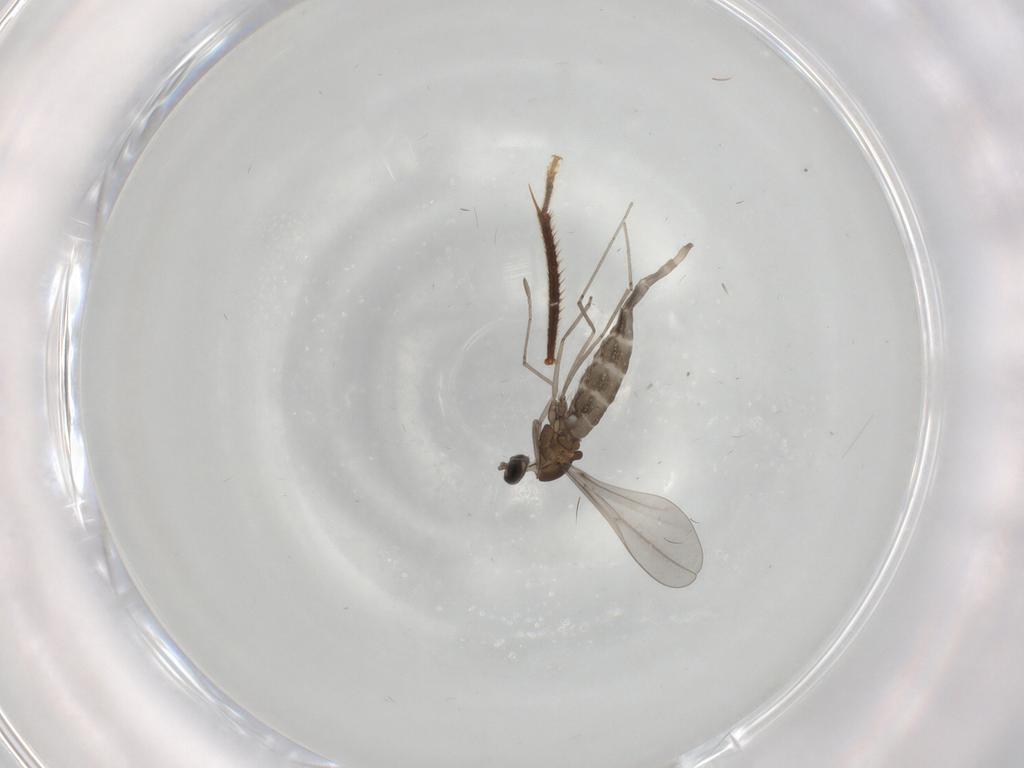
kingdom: Animalia
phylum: Arthropoda
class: Insecta
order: Diptera
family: Cecidomyiidae
